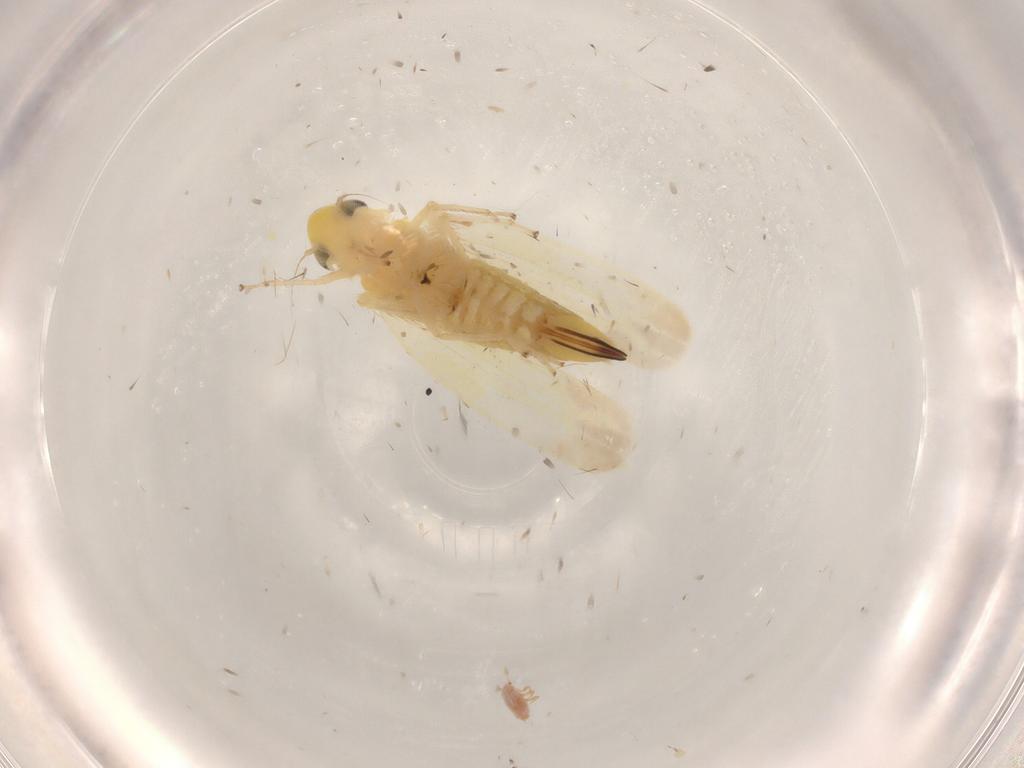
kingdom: Animalia
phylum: Arthropoda
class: Insecta
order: Hemiptera
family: Cicadellidae
